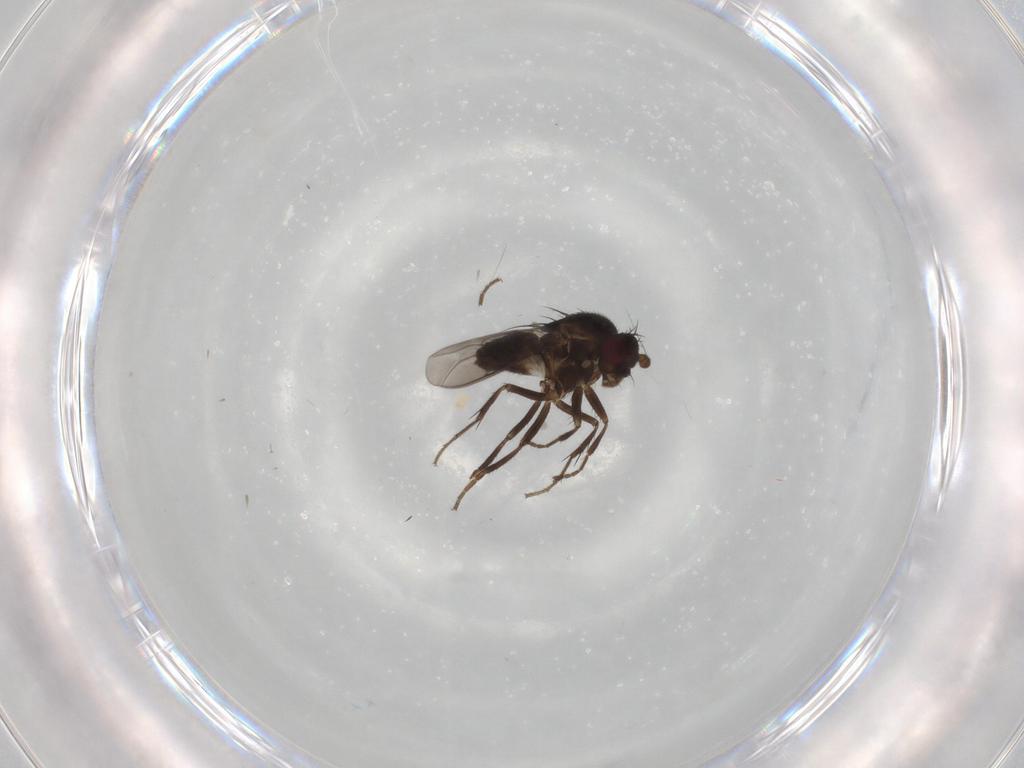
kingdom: Animalia
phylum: Arthropoda
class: Insecta
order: Diptera
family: Sphaeroceridae
